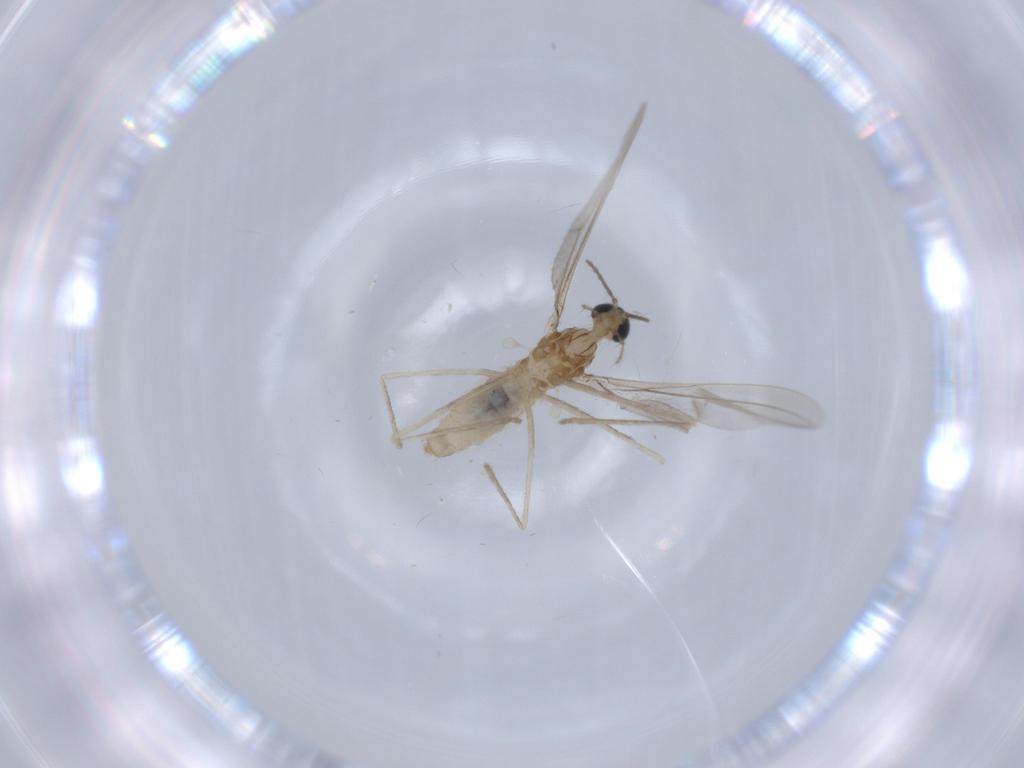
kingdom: Animalia
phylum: Arthropoda
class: Insecta
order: Diptera
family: Cecidomyiidae
